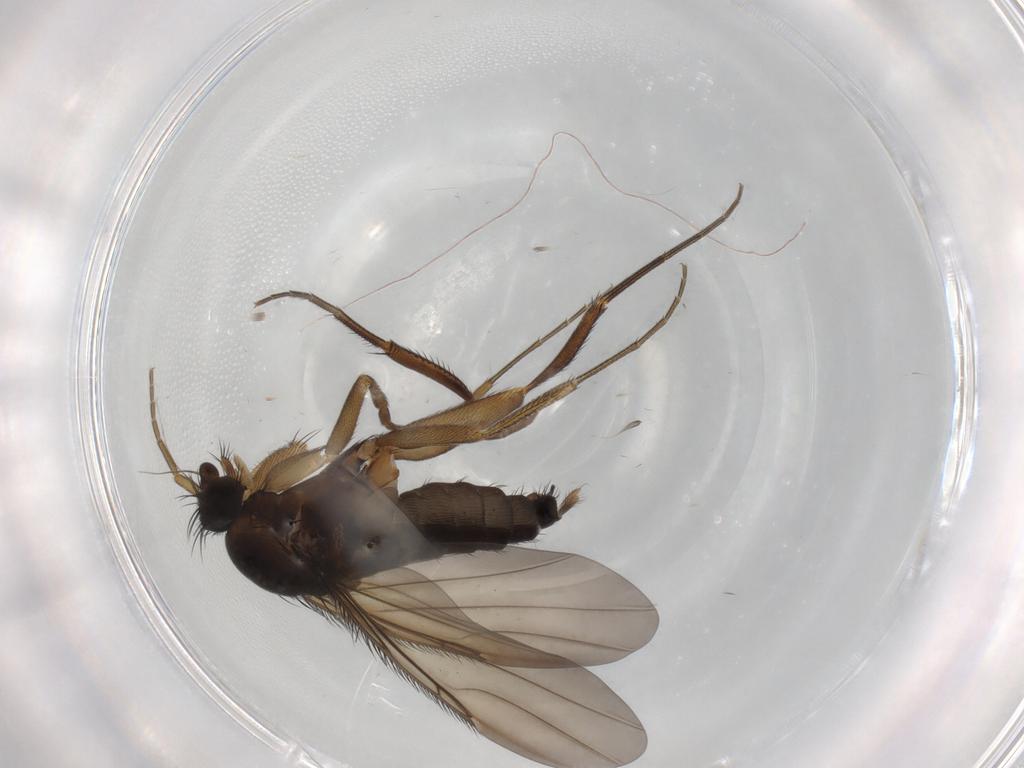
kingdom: Animalia
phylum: Arthropoda
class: Insecta
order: Diptera
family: Phoridae
